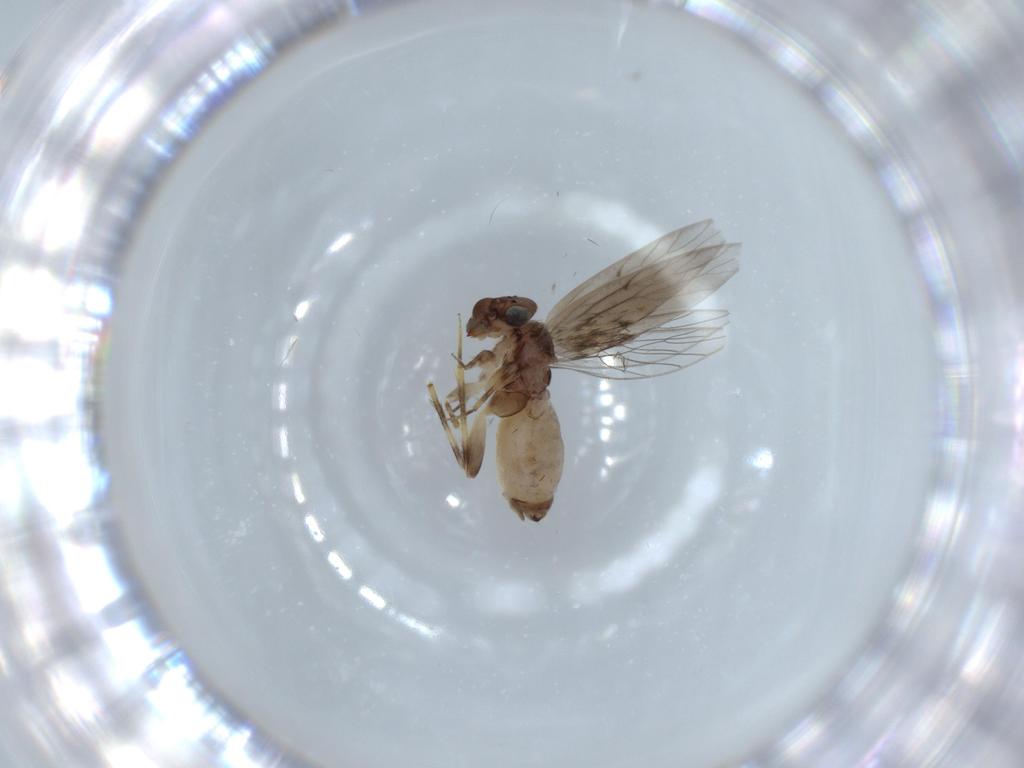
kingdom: Animalia
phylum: Arthropoda
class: Insecta
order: Psocodea
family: Lepidopsocidae
